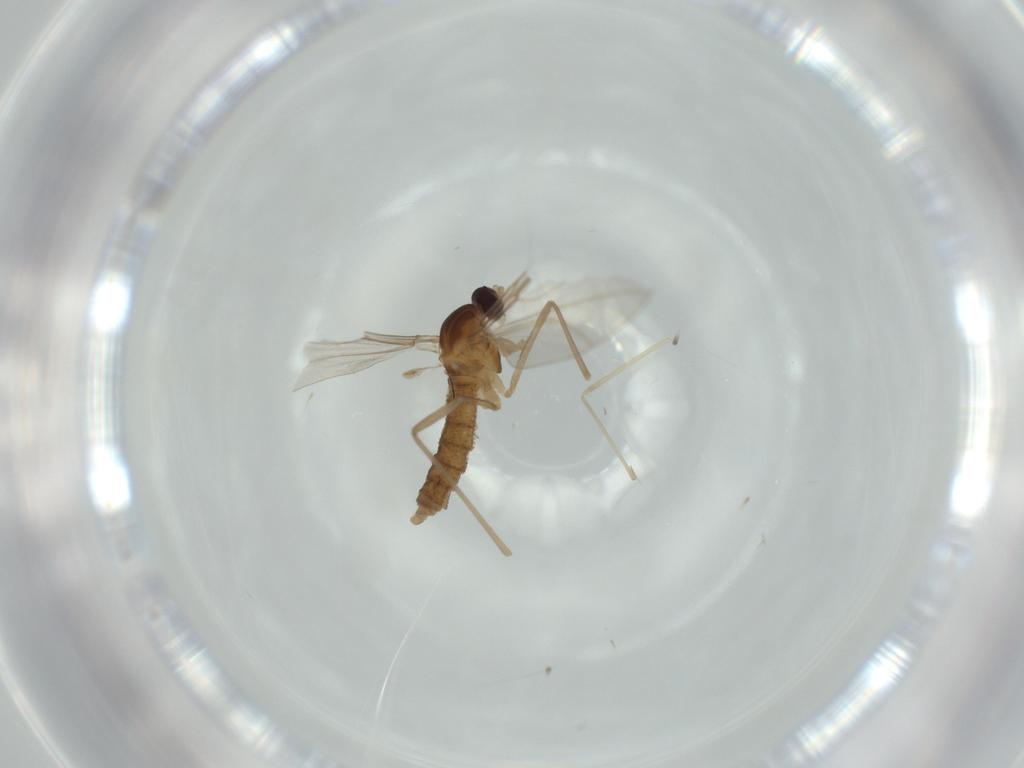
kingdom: Animalia
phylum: Arthropoda
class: Insecta
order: Diptera
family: Cecidomyiidae
